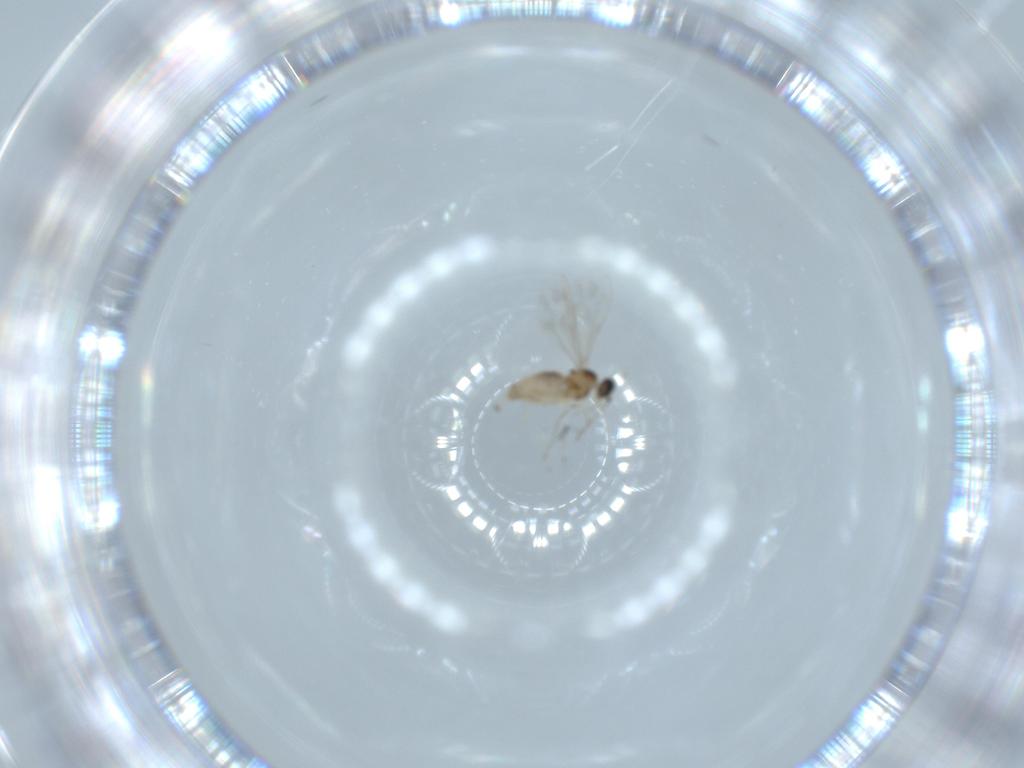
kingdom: Animalia
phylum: Arthropoda
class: Insecta
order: Diptera
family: Cecidomyiidae
